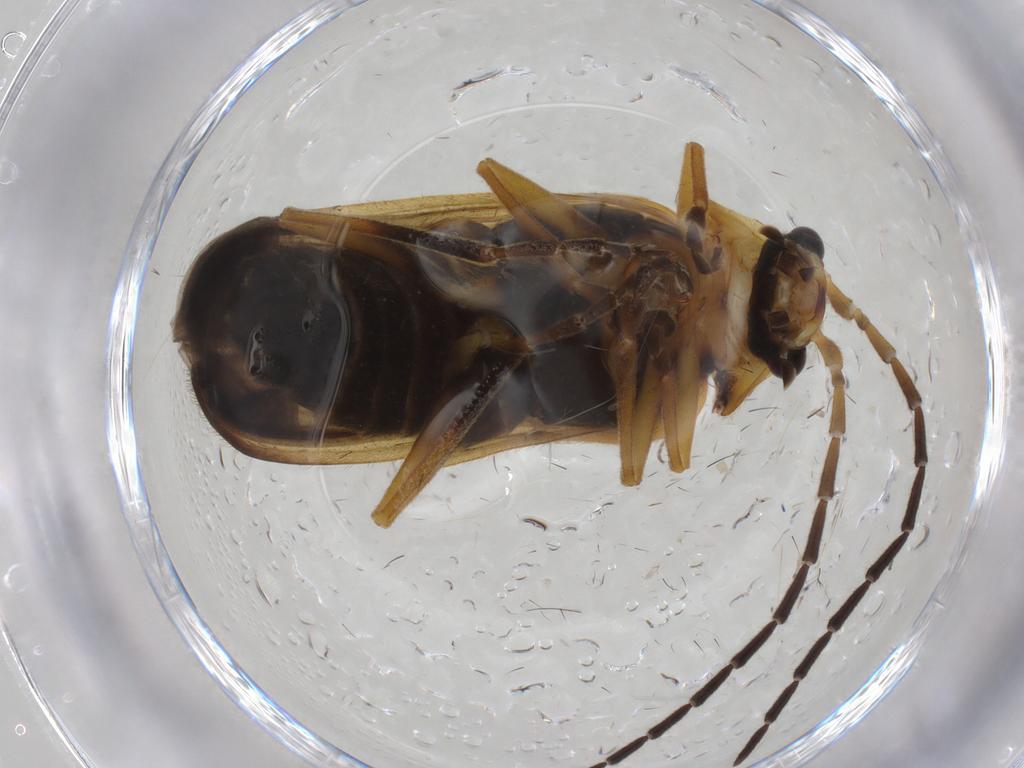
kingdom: Animalia
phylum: Arthropoda
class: Insecta
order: Coleoptera
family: Cantharidae
